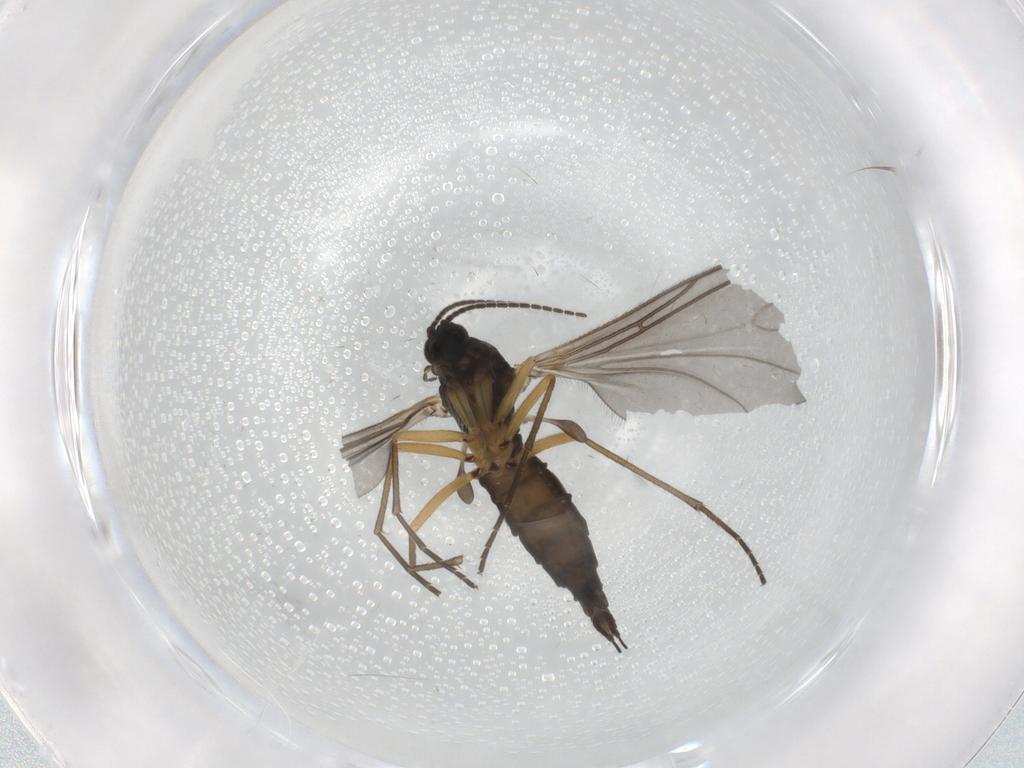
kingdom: Animalia
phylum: Arthropoda
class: Insecta
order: Diptera
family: Sciaridae
